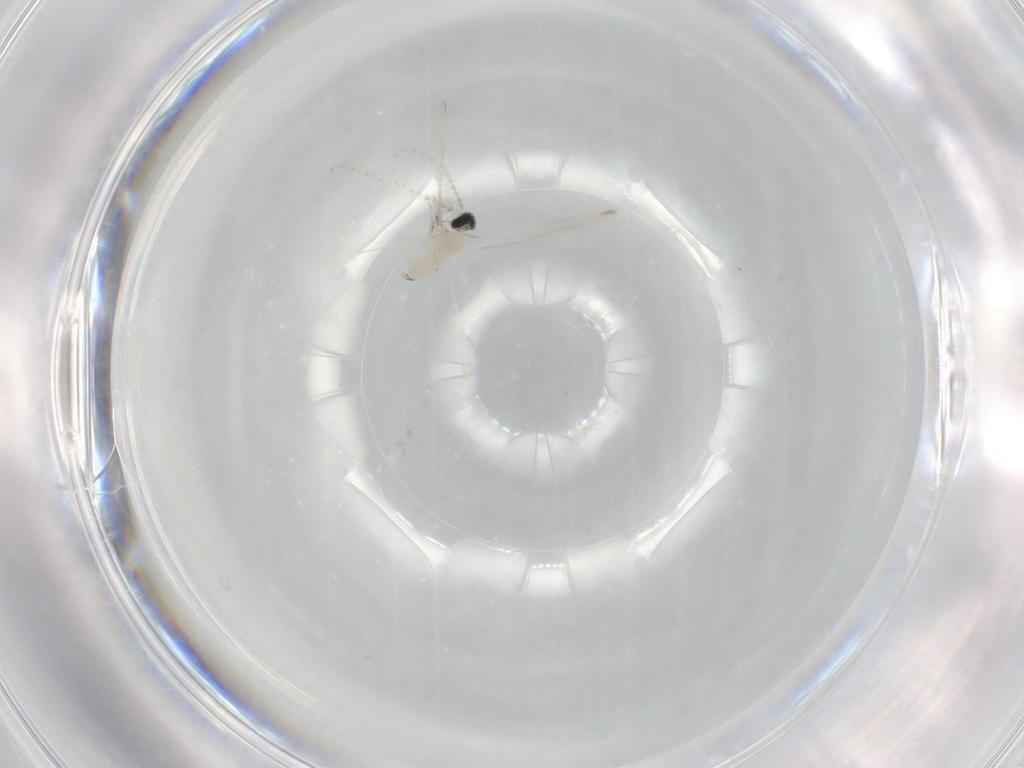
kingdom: Animalia
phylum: Arthropoda
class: Insecta
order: Diptera
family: Cecidomyiidae
